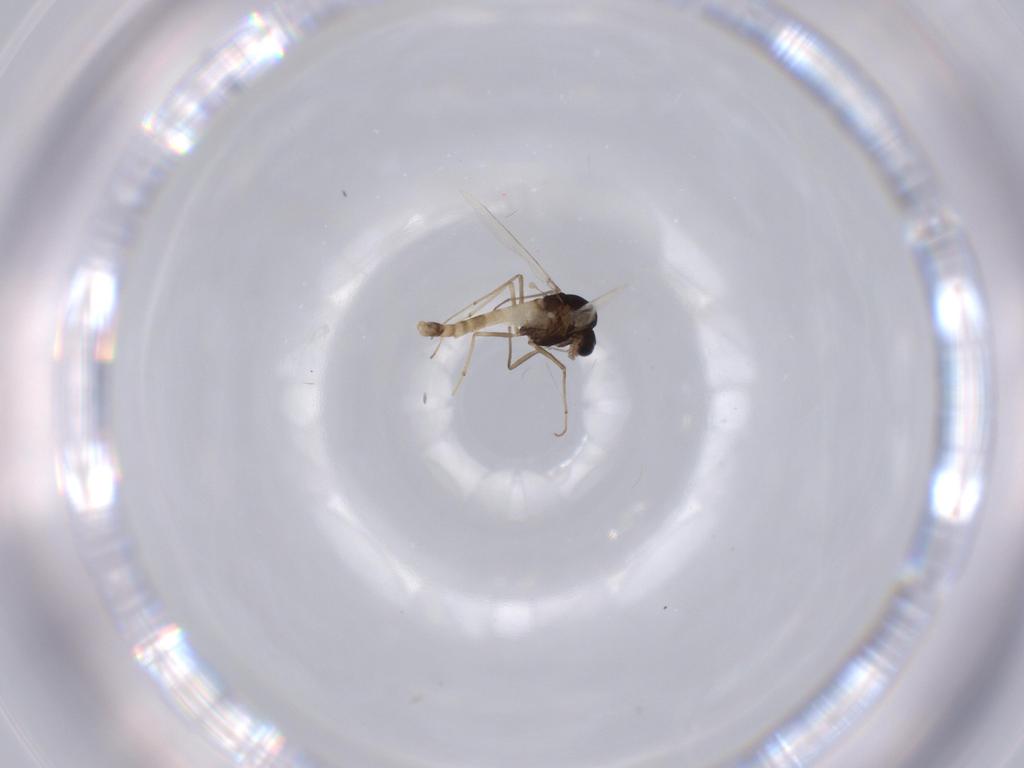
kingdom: Animalia
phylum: Arthropoda
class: Insecta
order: Diptera
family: Chironomidae
